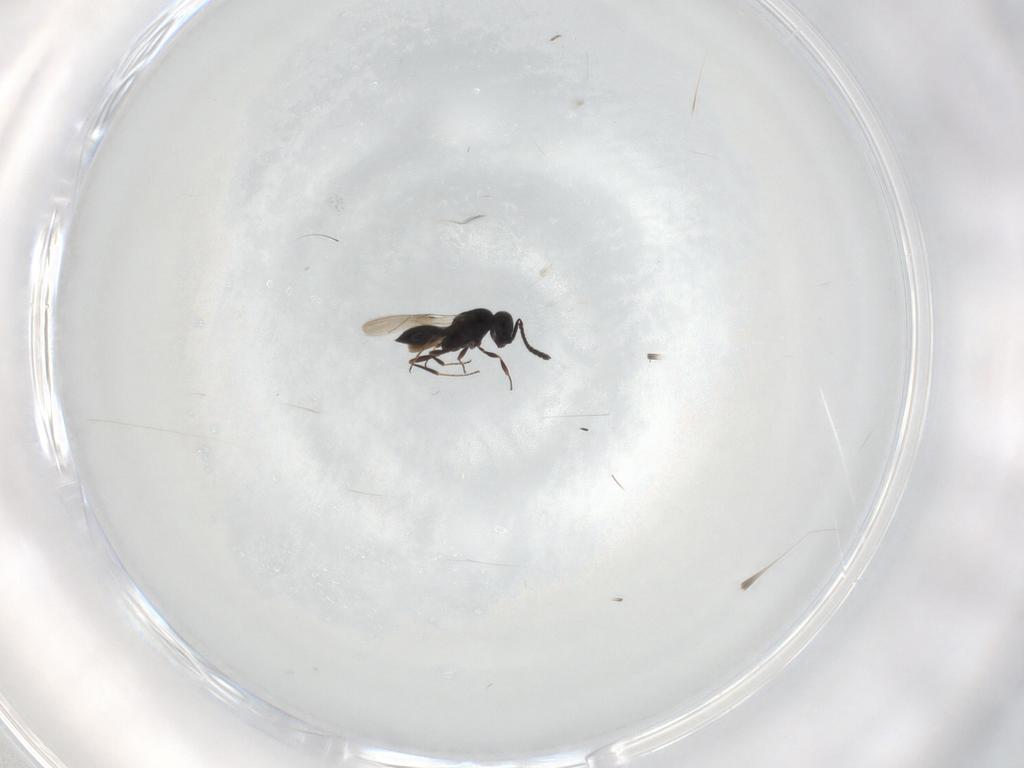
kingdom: Animalia
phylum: Arthropoda
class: Insecta
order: Hymenoptera
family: Scelionidae
